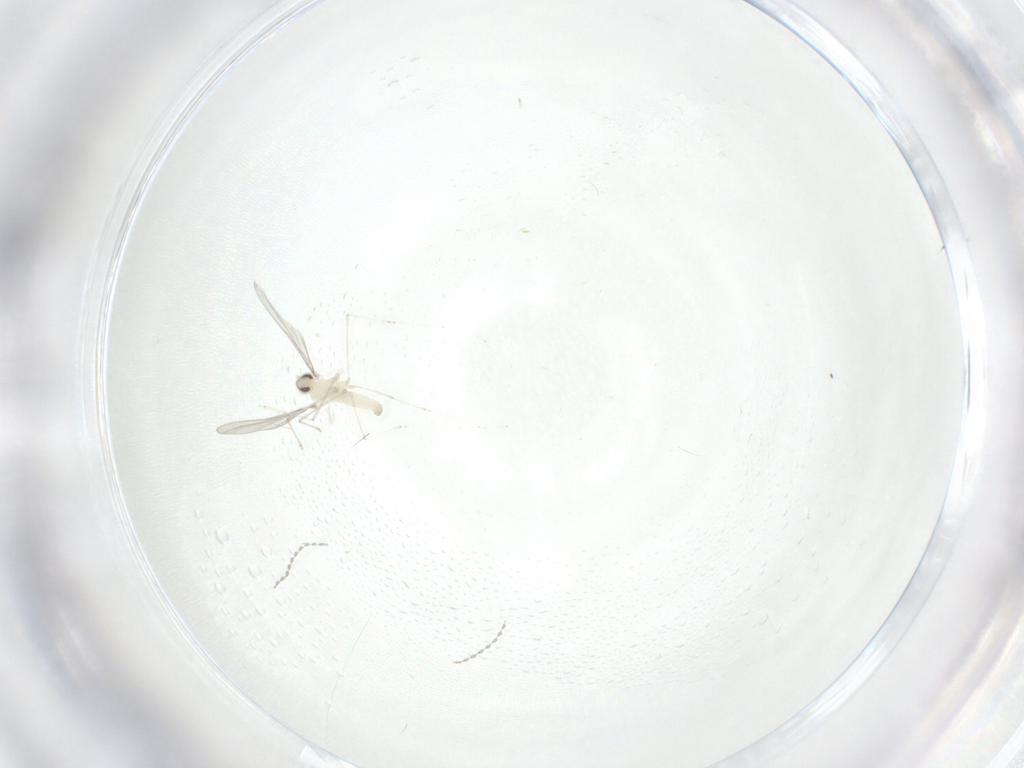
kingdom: Animalia
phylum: Arthropoda
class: Insecta
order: Diptera
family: Cecidomyiidae
